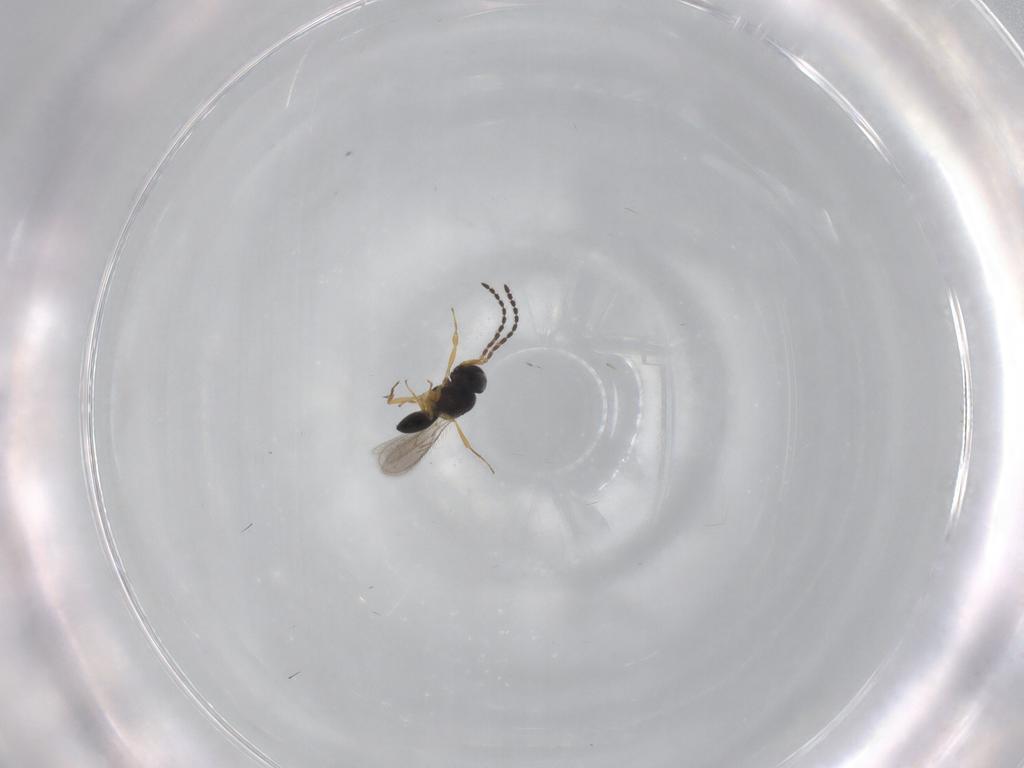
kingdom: Animalia
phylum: Arthropoda
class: Insecta
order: Hymenoptera
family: Scelionidae
